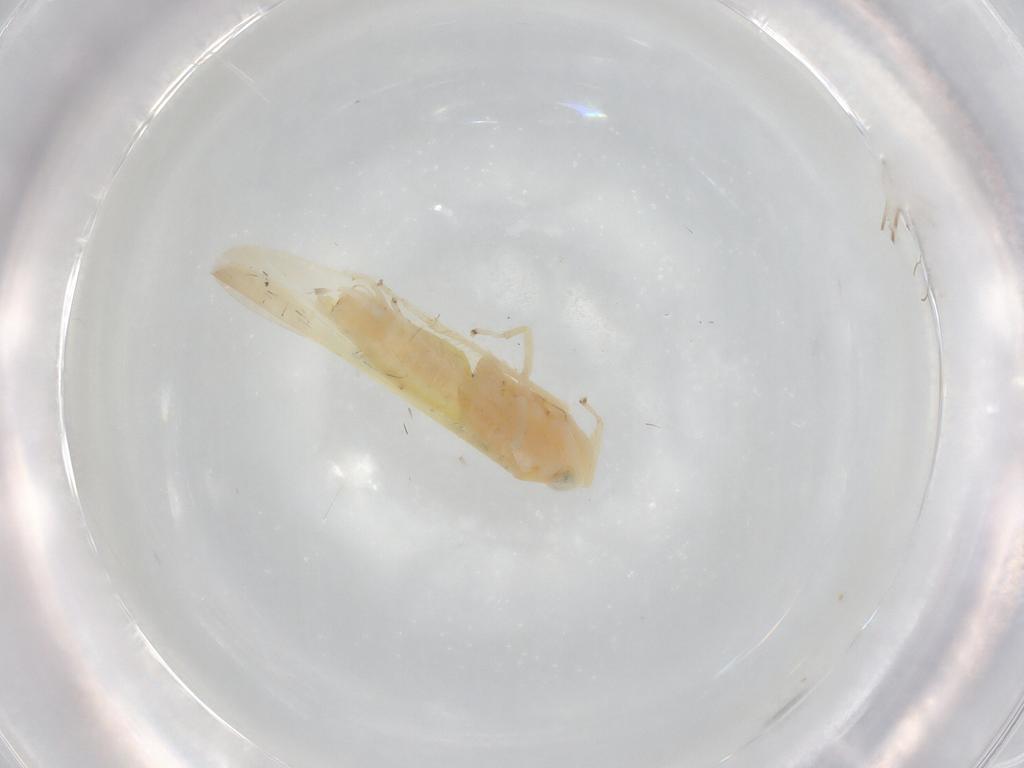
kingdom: Animalia
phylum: Arthropoda
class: Insecta
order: Hemiptera
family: Cicadellidae
